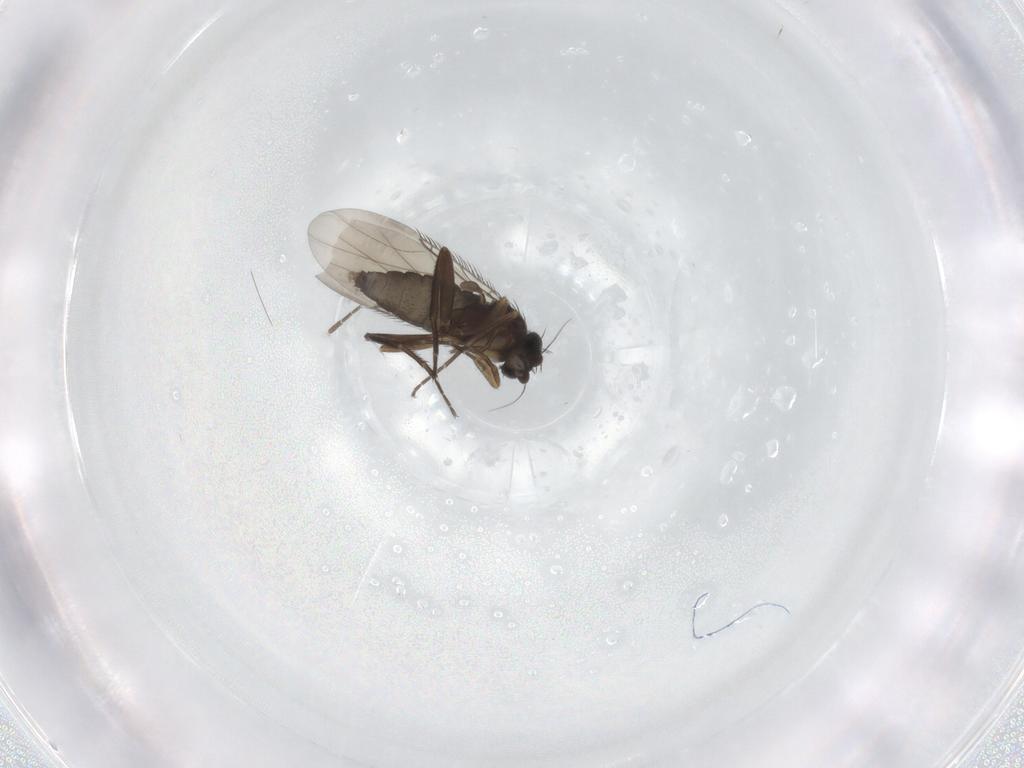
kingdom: Animalia
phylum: Arthropoda
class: Insecta
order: Diptera
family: Phoridae
